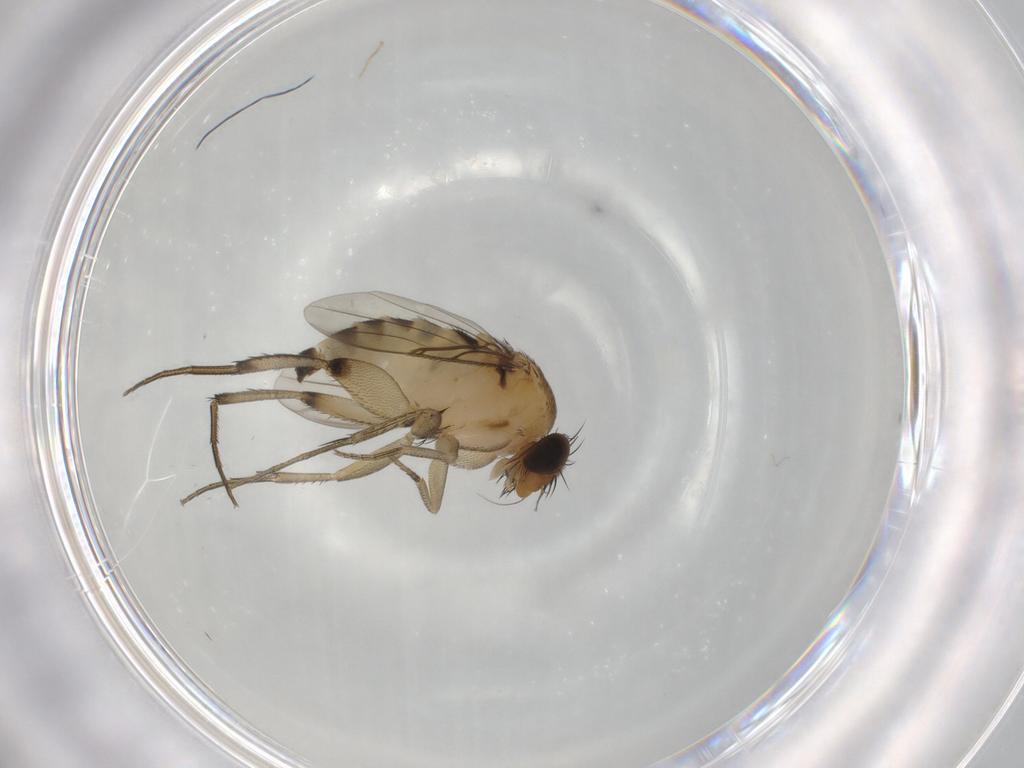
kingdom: Animalia
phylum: Arthropoda
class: Insecta
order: Diptera
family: Phoridae
